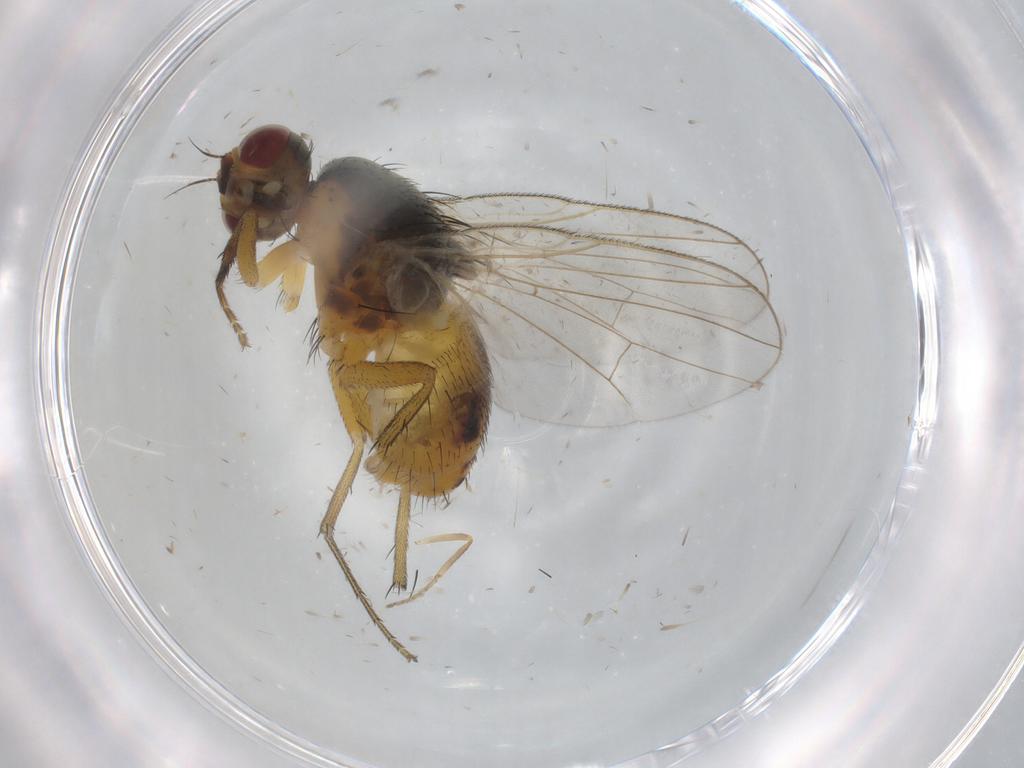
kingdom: Animalia
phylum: Arthropoda
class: Insecta
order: Diptera
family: Muscidae
